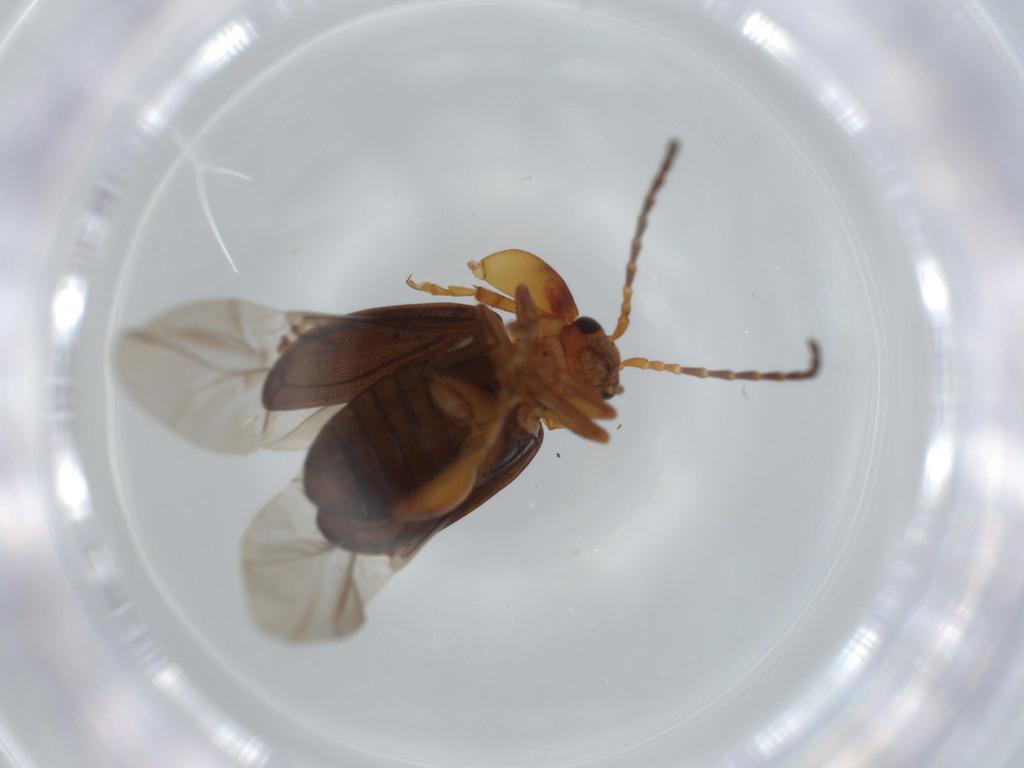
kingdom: Animalia
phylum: Arthropoda
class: Insecta
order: Coleoptera
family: Chrysomelidae
